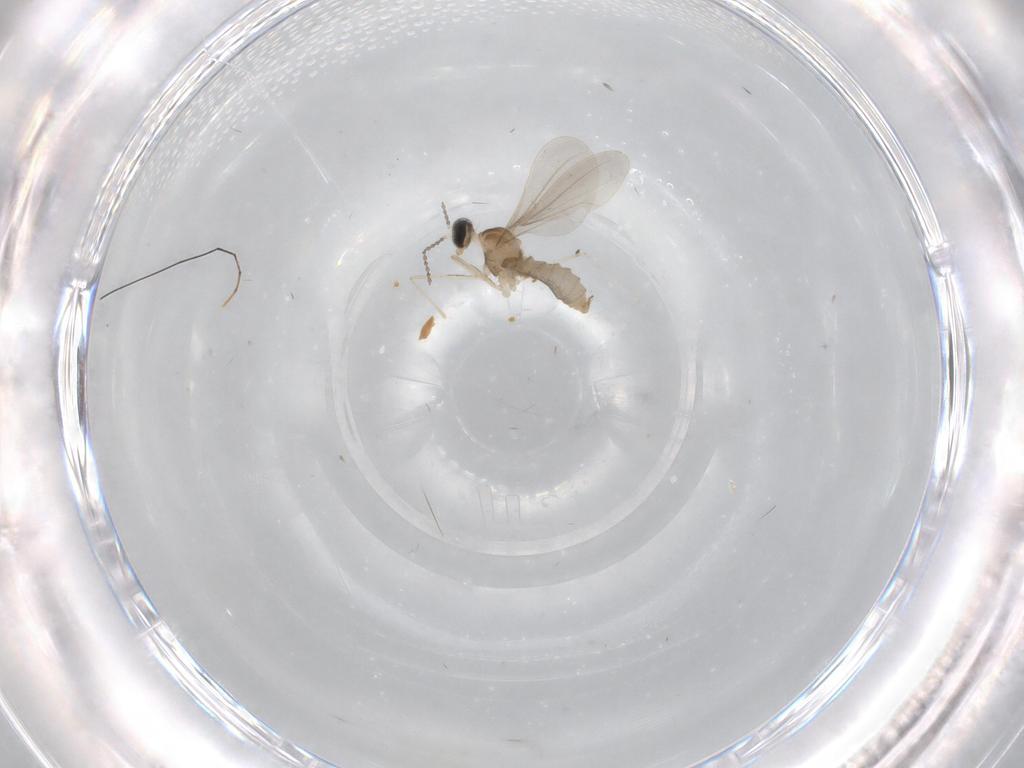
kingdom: Animalia
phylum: Arthropoda
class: Insecta
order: Diptera
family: Cecidomyiidae
